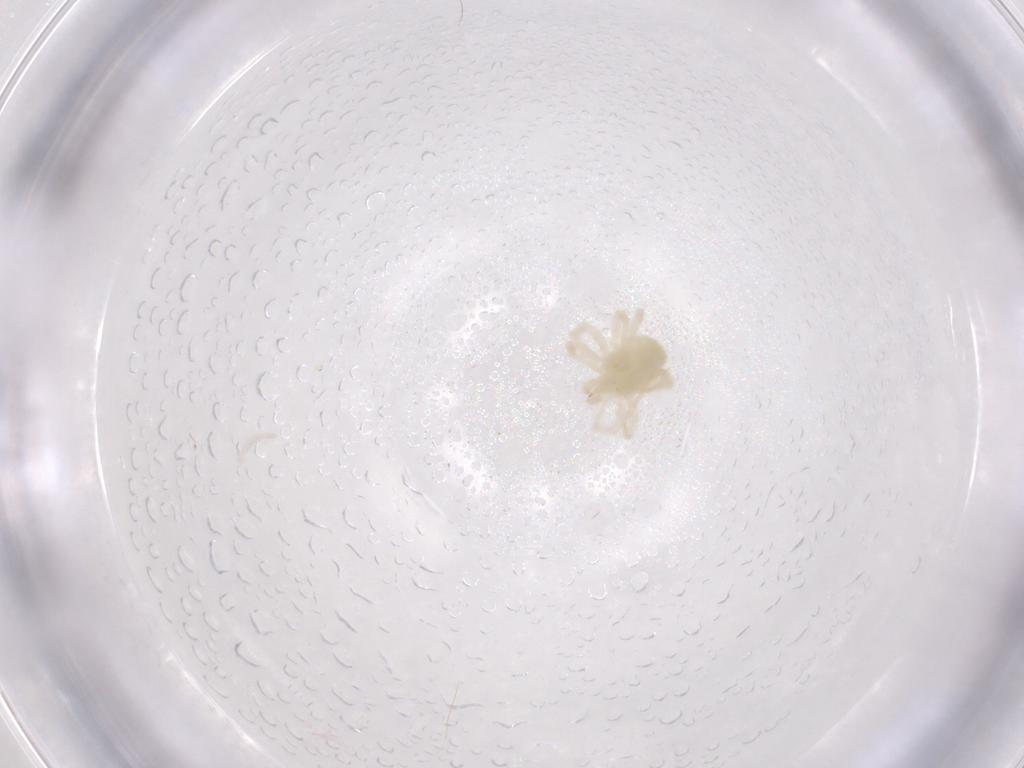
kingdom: Animalia
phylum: Arthropoda
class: Arachnida
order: Trombidiformes
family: Anystidae
